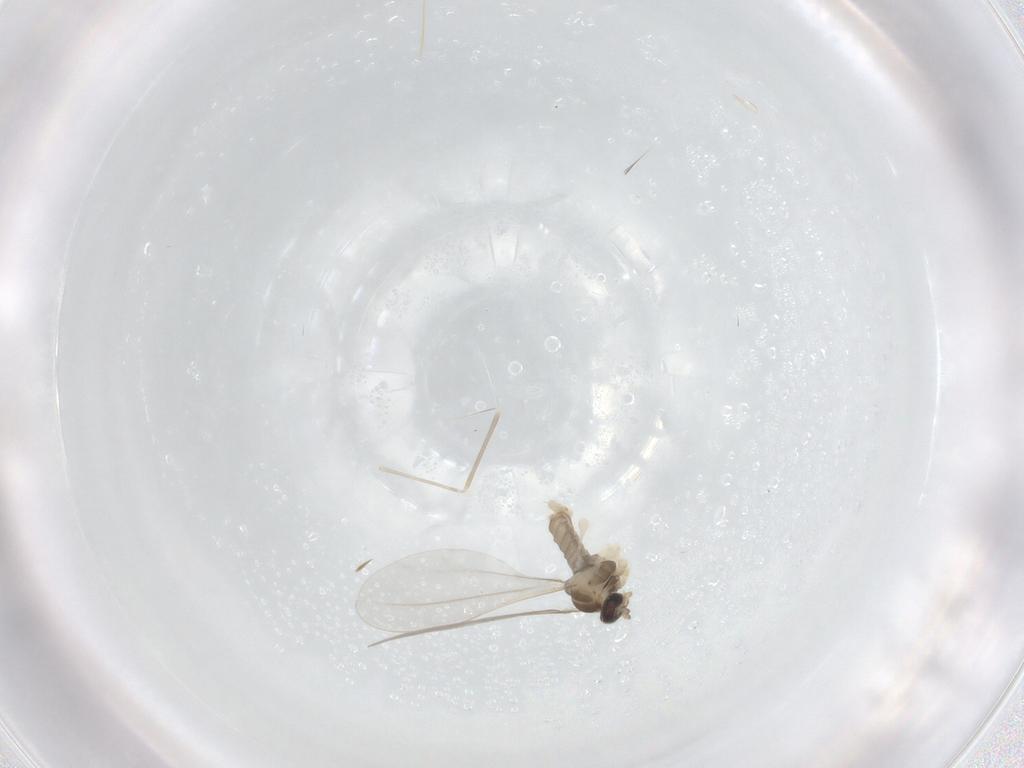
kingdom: Animalia
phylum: Arthropoda
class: Insecta
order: Diptera
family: Cecidomyiidae
